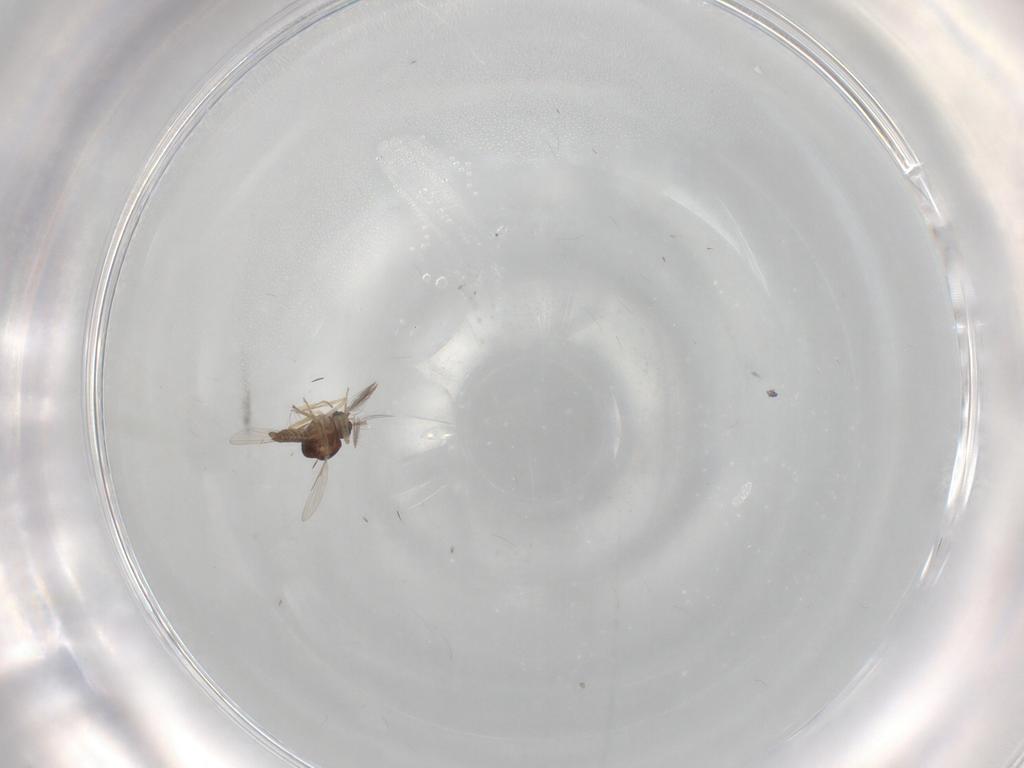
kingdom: Animalia
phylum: Arthropoda
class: Insecta
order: Diptera
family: Ceratopogonidae
